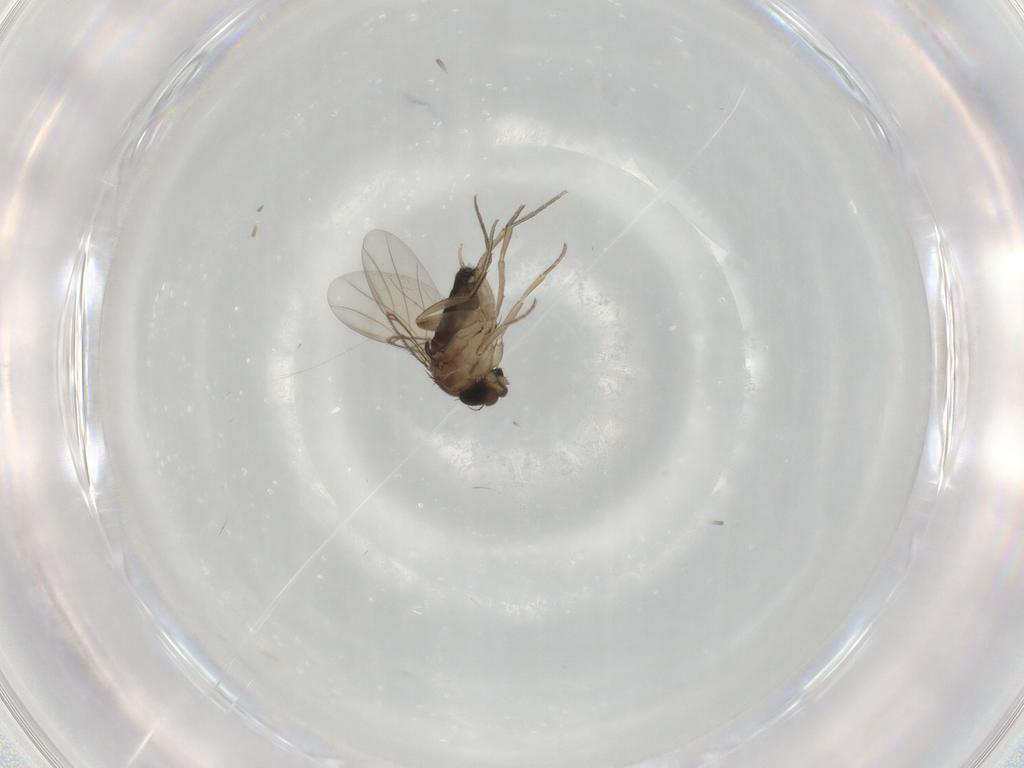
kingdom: Animalia
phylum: Arthropoda
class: Insecta
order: Diptera
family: Phoridae
